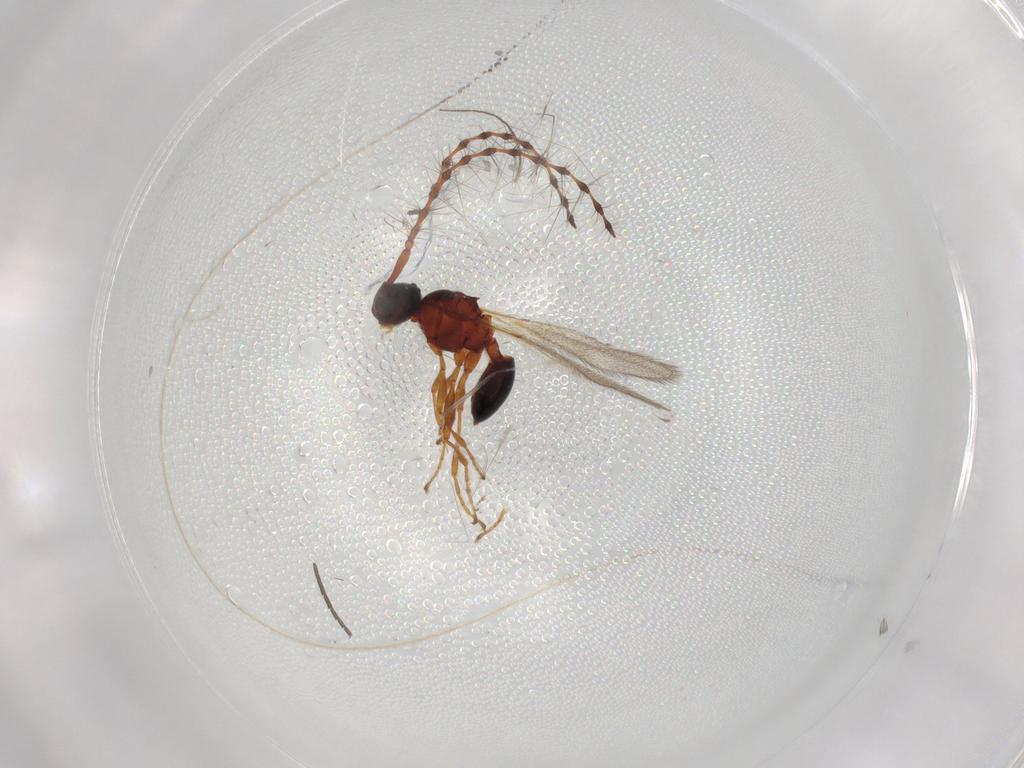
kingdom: Animalia
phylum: Arthropoda
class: Insecta
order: Hymenoptera
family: Diapriidae
